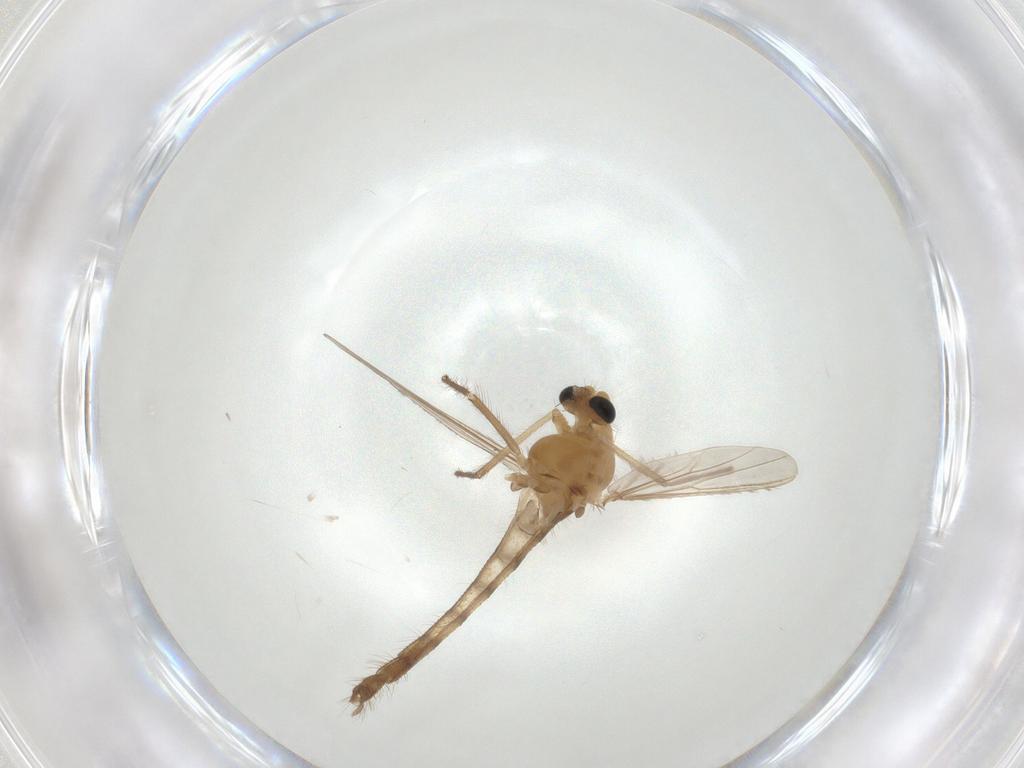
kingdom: Animalia
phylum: Arthropoda
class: Insecta
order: Diptera
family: Chironomidae
